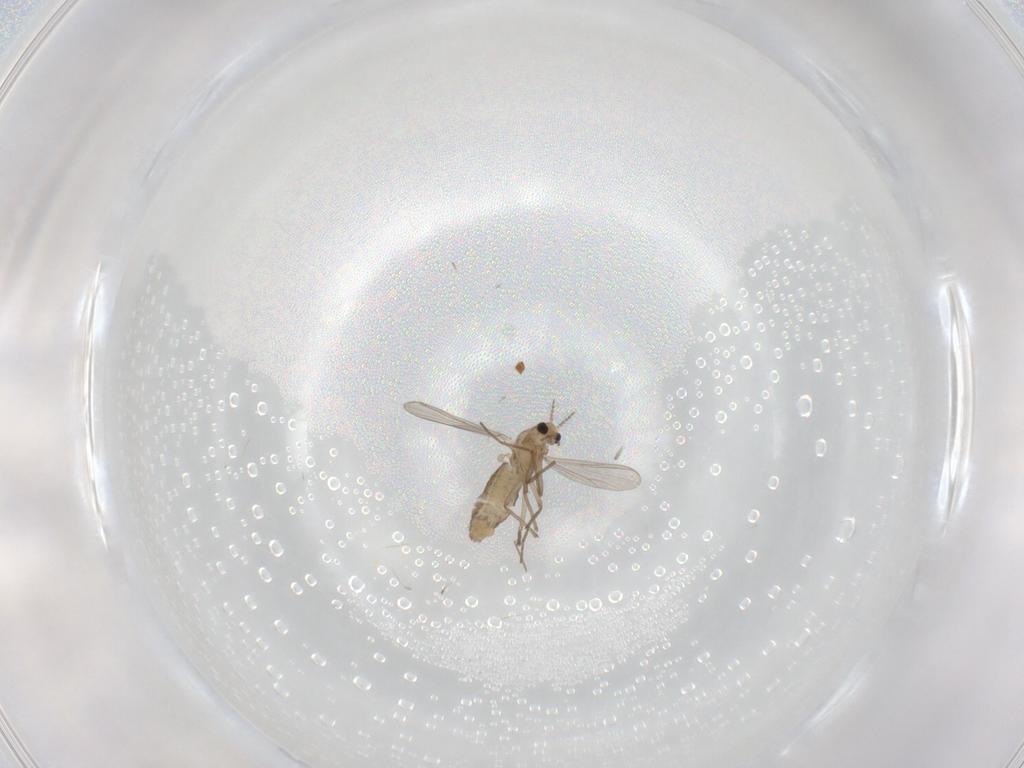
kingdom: Animalia
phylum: Arthropoda
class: Insecta
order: Diptera
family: Chironomidae
